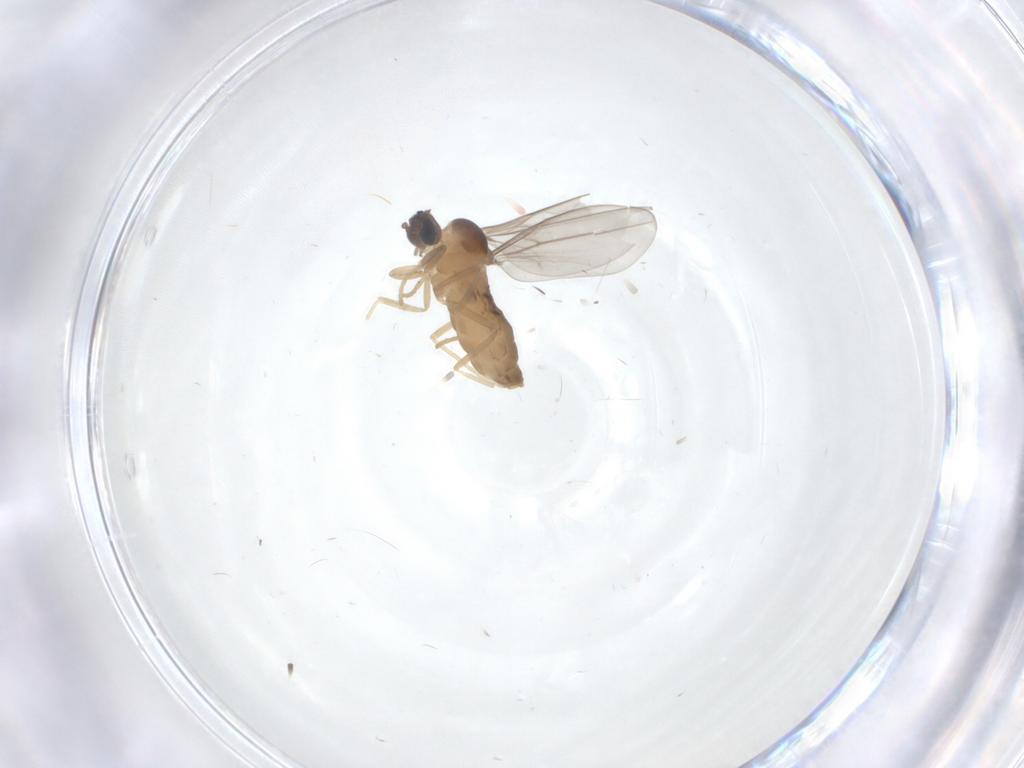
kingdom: Animalia
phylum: Arthropoda
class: Insecta
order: Diptera
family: Cecidomyiidae
